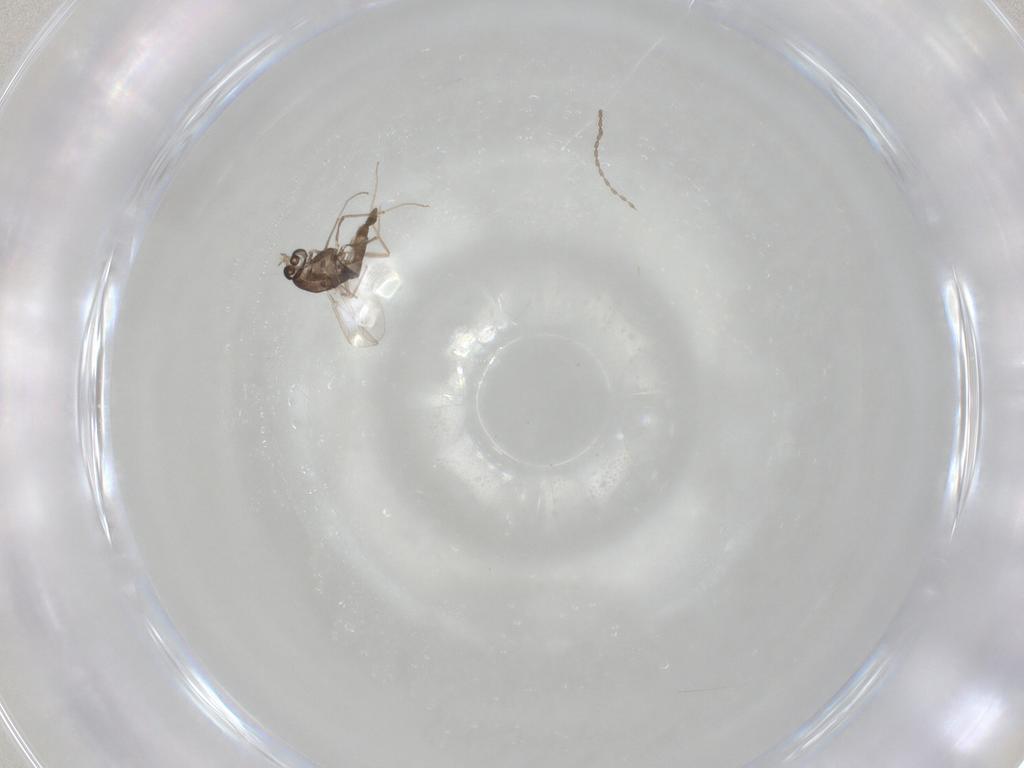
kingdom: Animalia
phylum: Arthropoda
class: Insecta
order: Diptera
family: Chironomidae
